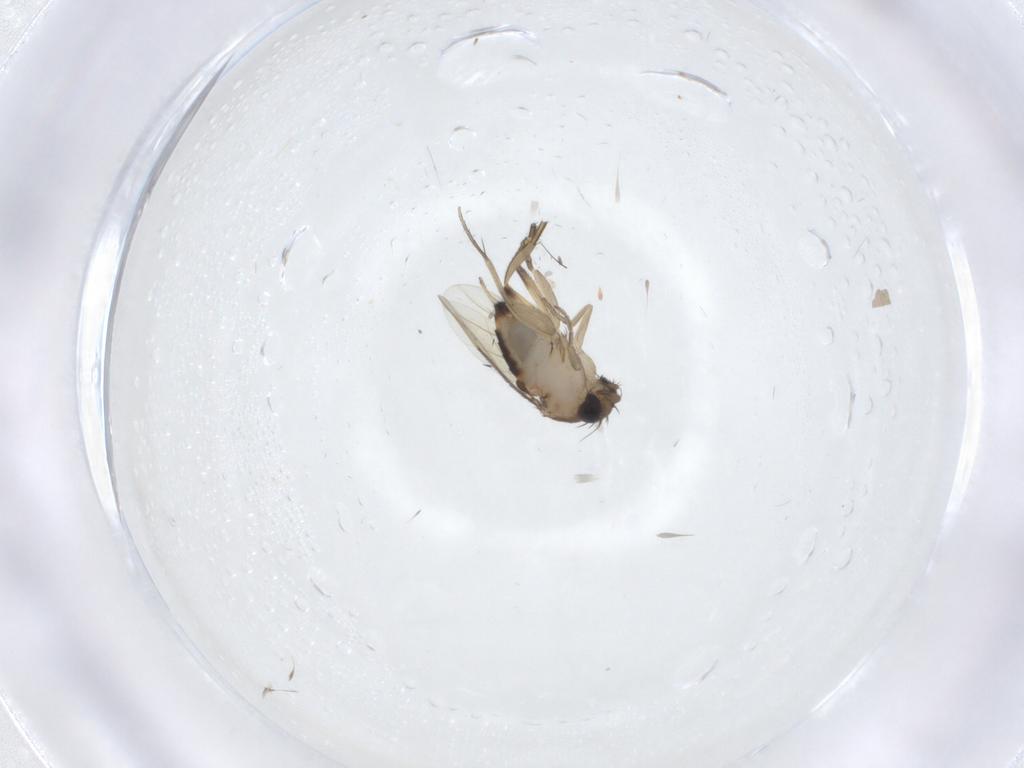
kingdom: Animalia
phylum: Arthropoda
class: Insecta
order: Diptera
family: Limoniidae
